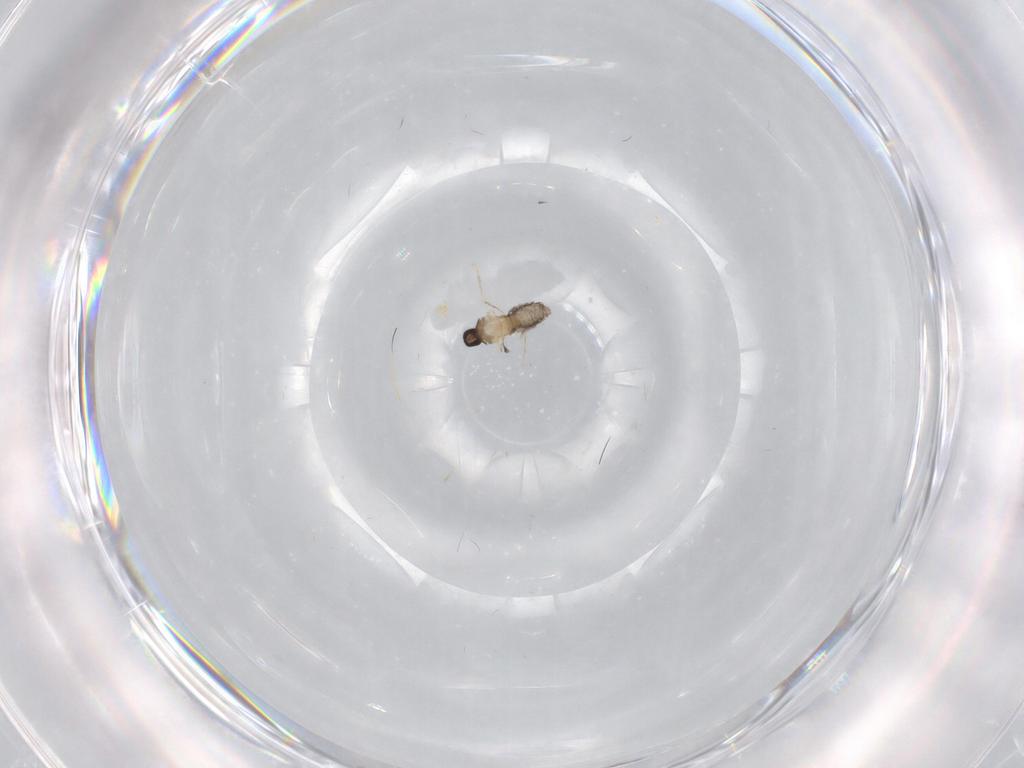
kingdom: Animalia
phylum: Arthropoda
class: Insecta
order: Diptera
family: Cecidomyiidae
